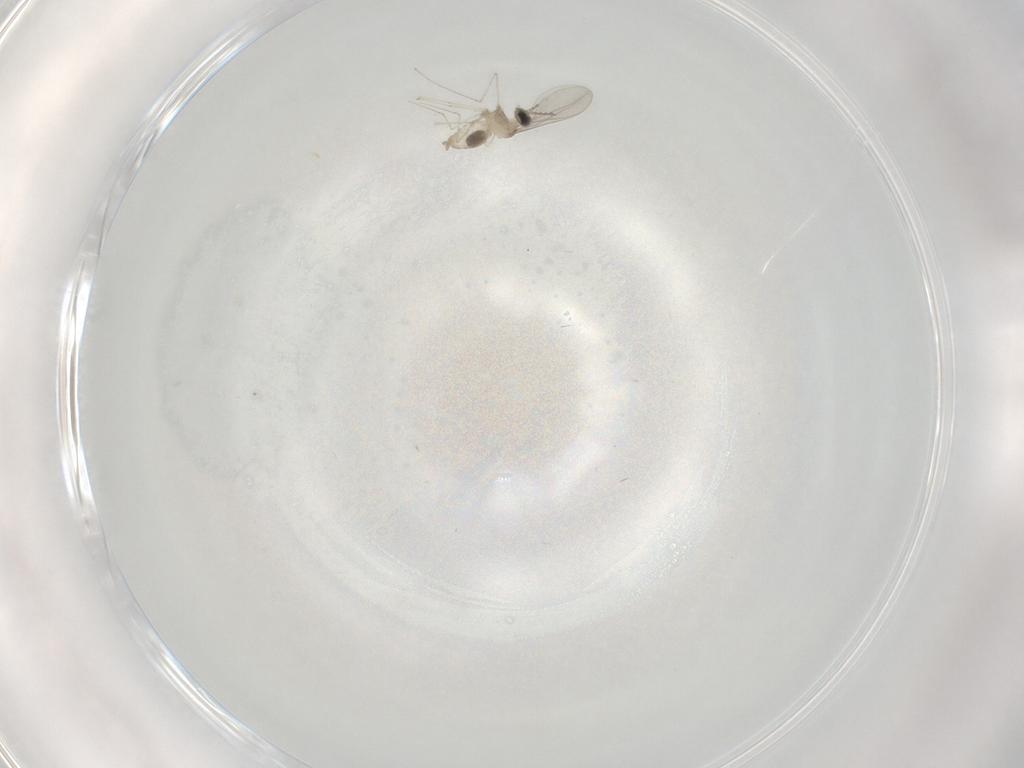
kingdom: Animalia
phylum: Arthropoda
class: Insecta
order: Diptera
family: Cecidomyiidae
